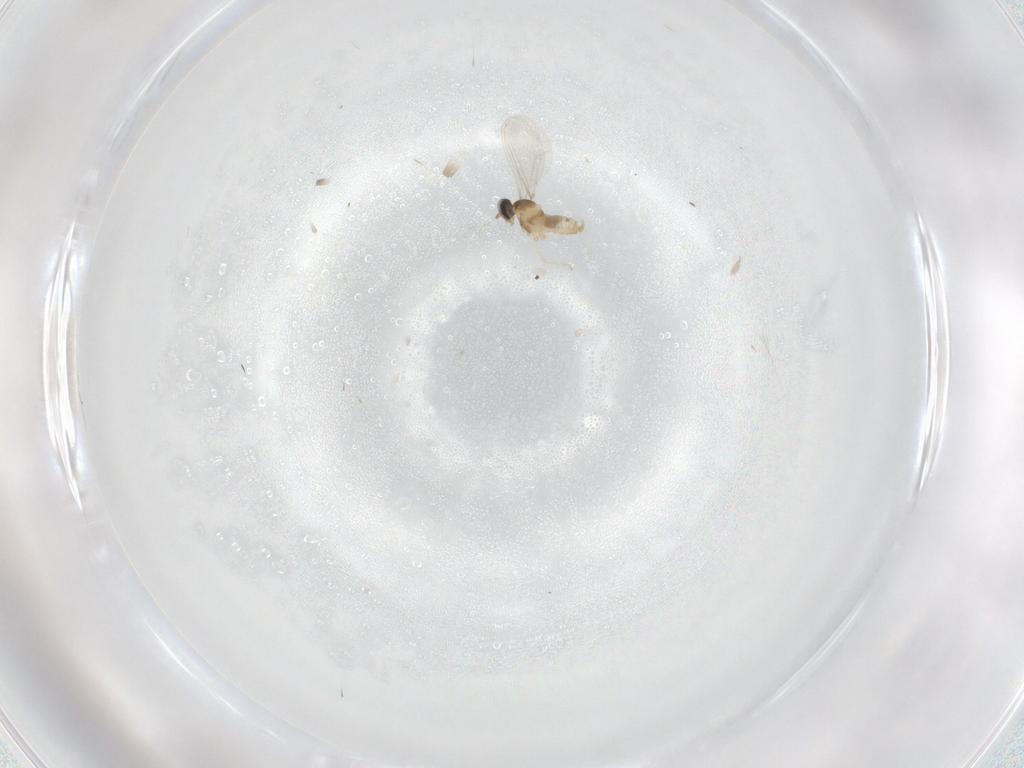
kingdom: Animalia
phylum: Arthropoda
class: Insecta
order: Diptera
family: Cecidomyiidae
